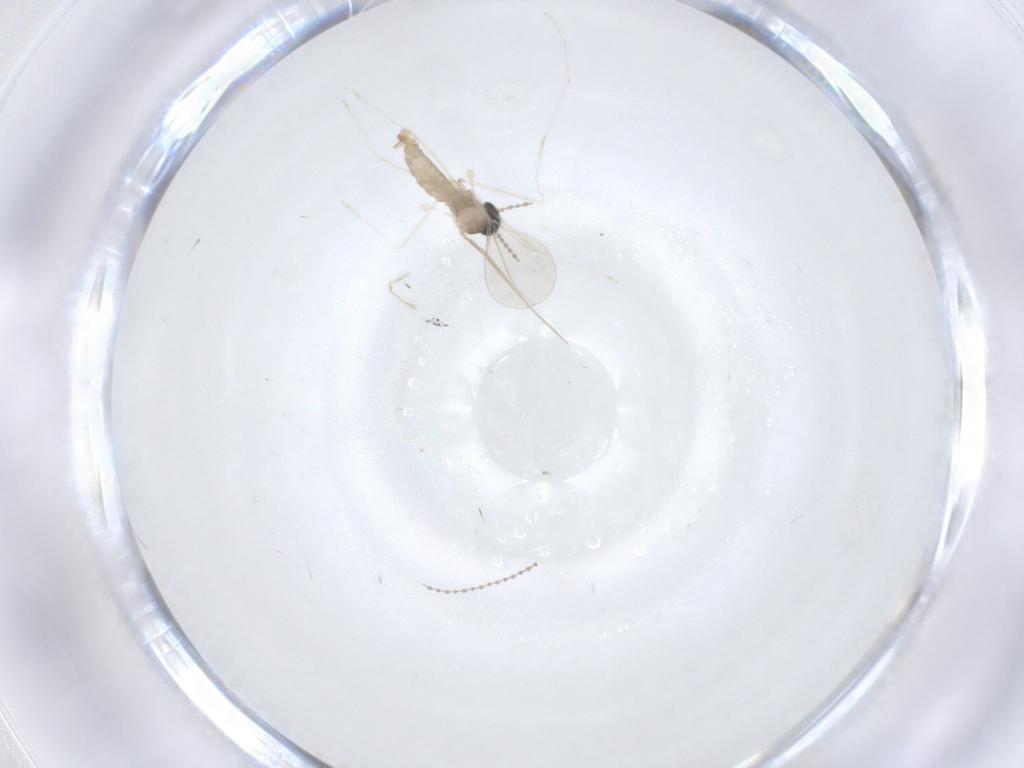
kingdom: Animalia
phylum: Arthropoda
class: Insecta
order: Diptera
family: Cecidomyiidae
